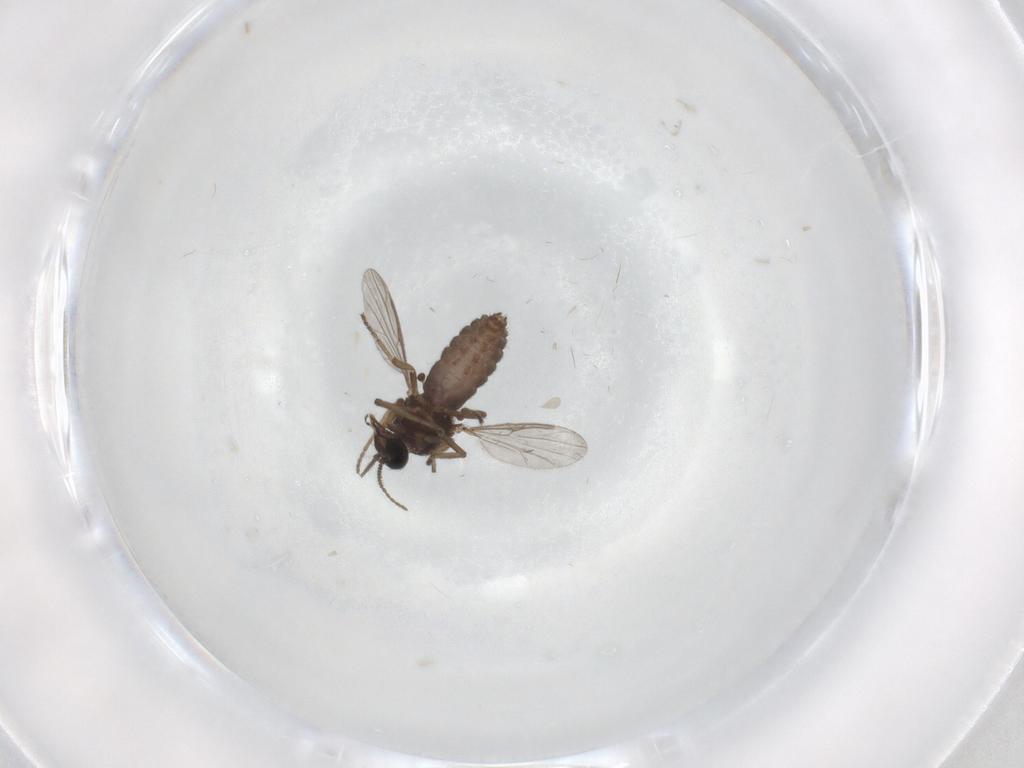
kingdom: Animalia
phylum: Arthropoda
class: Insecta
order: Diptera
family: Ceratopogonidae
